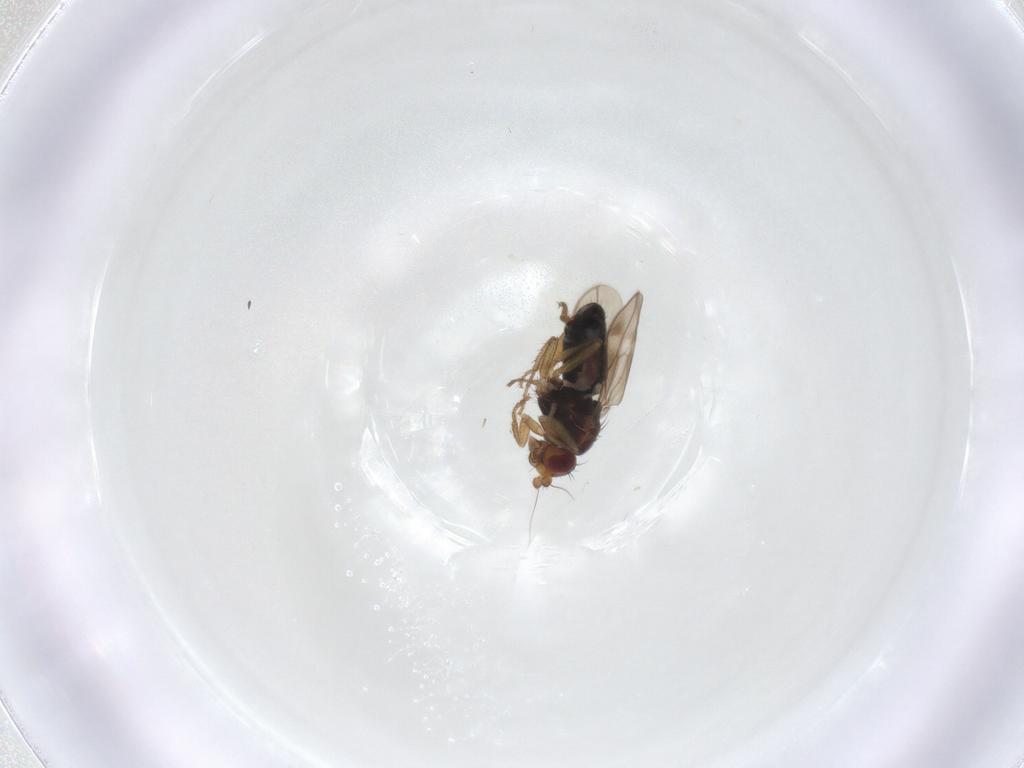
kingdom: Animalia
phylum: Arthropoda
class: Insecta
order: Diptera
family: Sphaeroceridae
